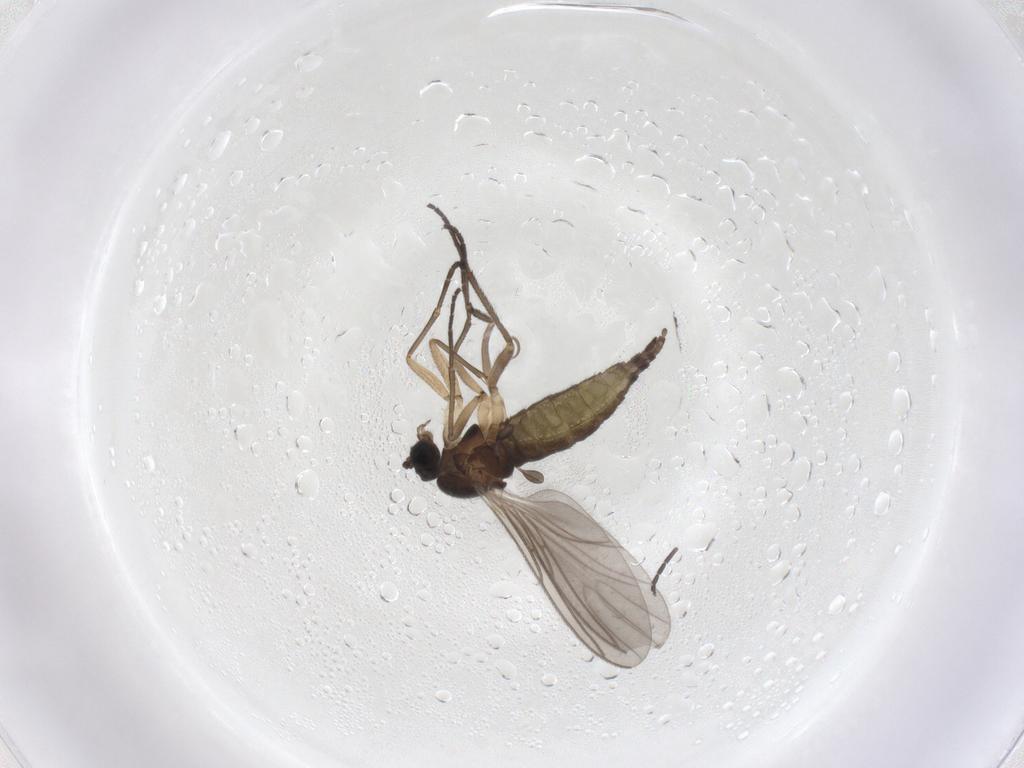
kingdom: Animalia
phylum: Arthropoda
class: Insecta
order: Diptera
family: Sciaridae
